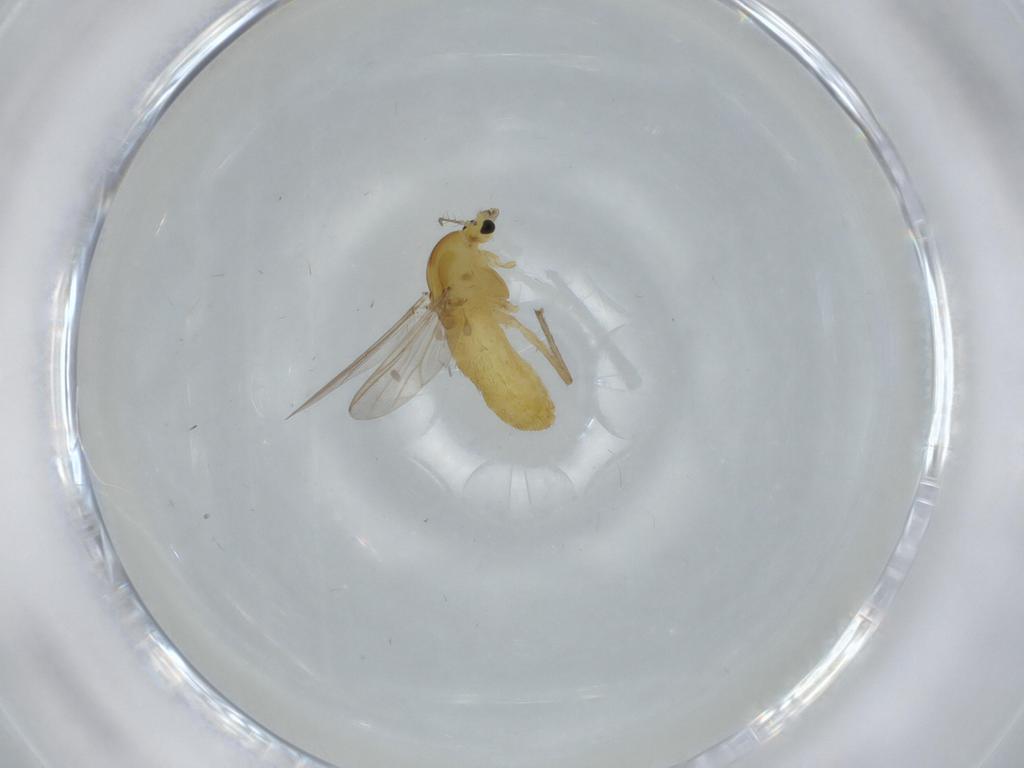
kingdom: Animalia
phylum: Arthropoda
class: Insecta
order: Diptera
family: Chironomidae
